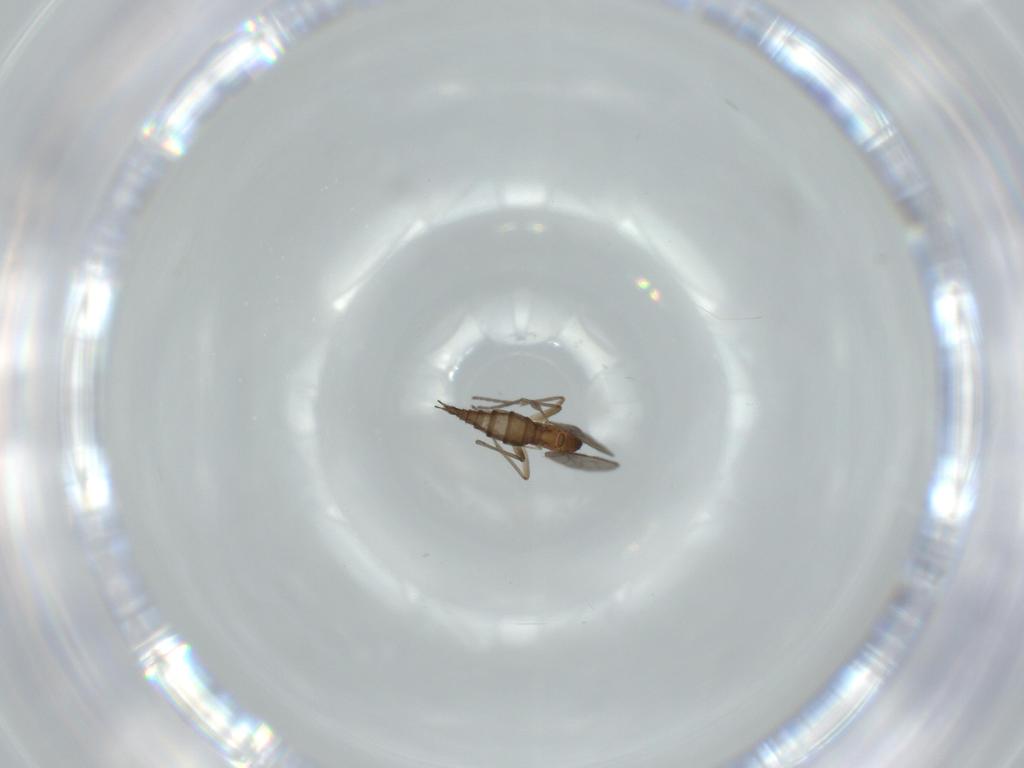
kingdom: Animalia
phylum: Arthropoda
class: Insecta
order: Diptera
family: Sciaridae
